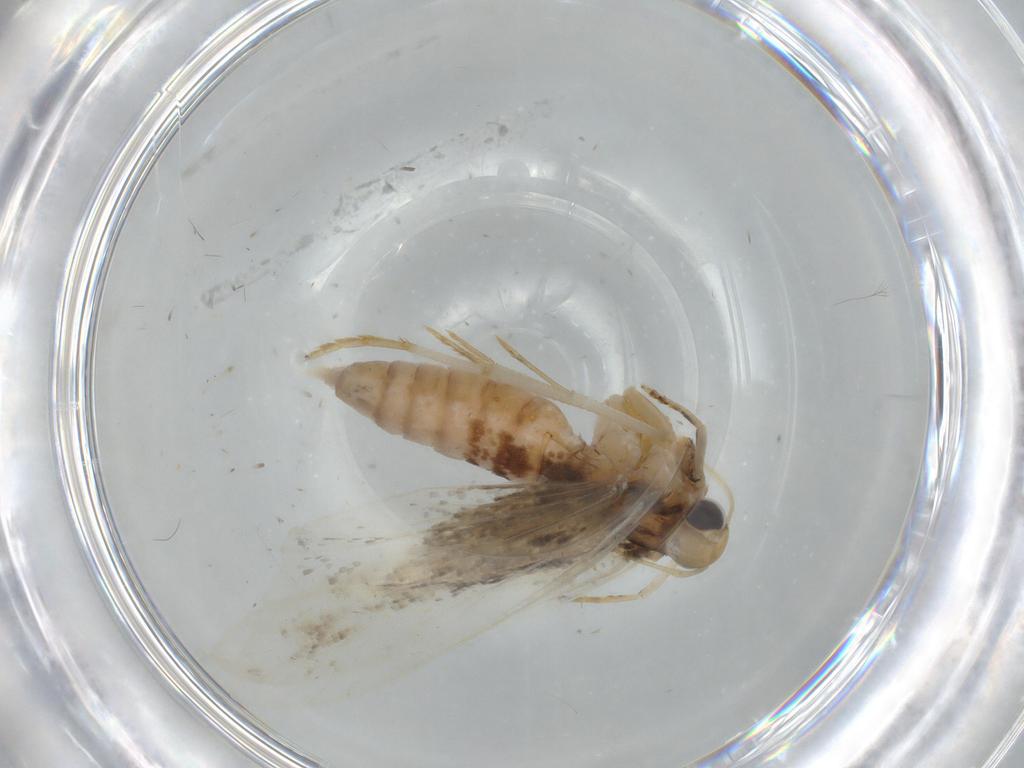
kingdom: Animalia
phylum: Arthropoda
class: Insecta
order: Lepidoptera
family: Gelechiidae
